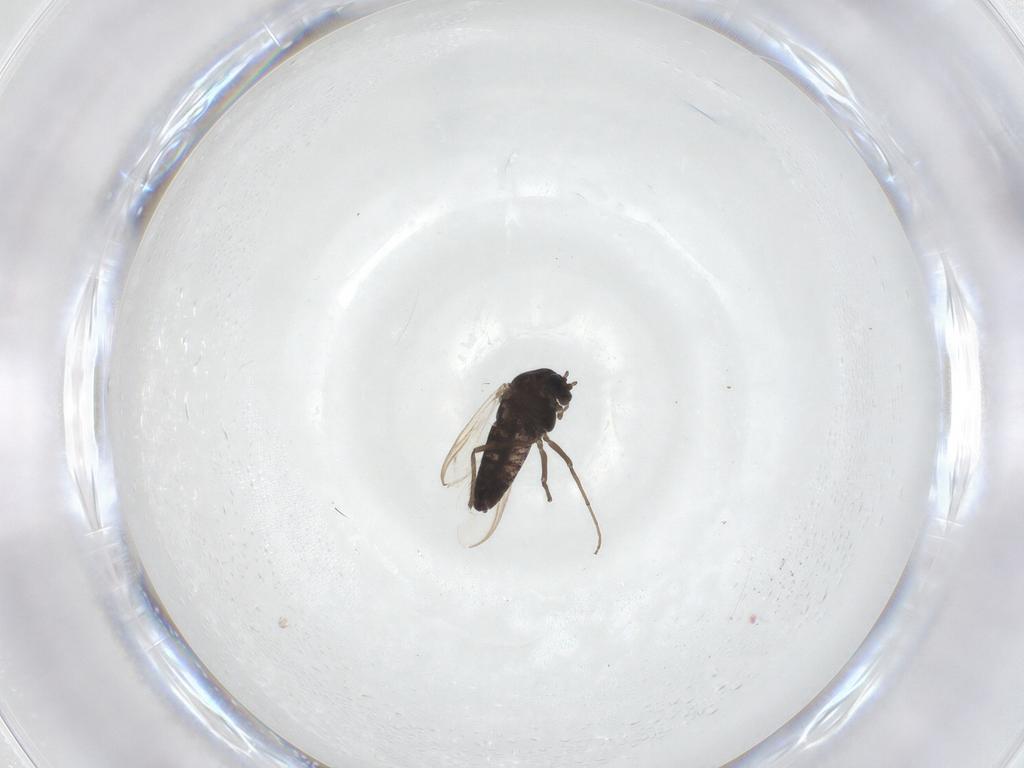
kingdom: Animalia
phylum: Arthropoda
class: Insecta
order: Diptera
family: Chironomidae
